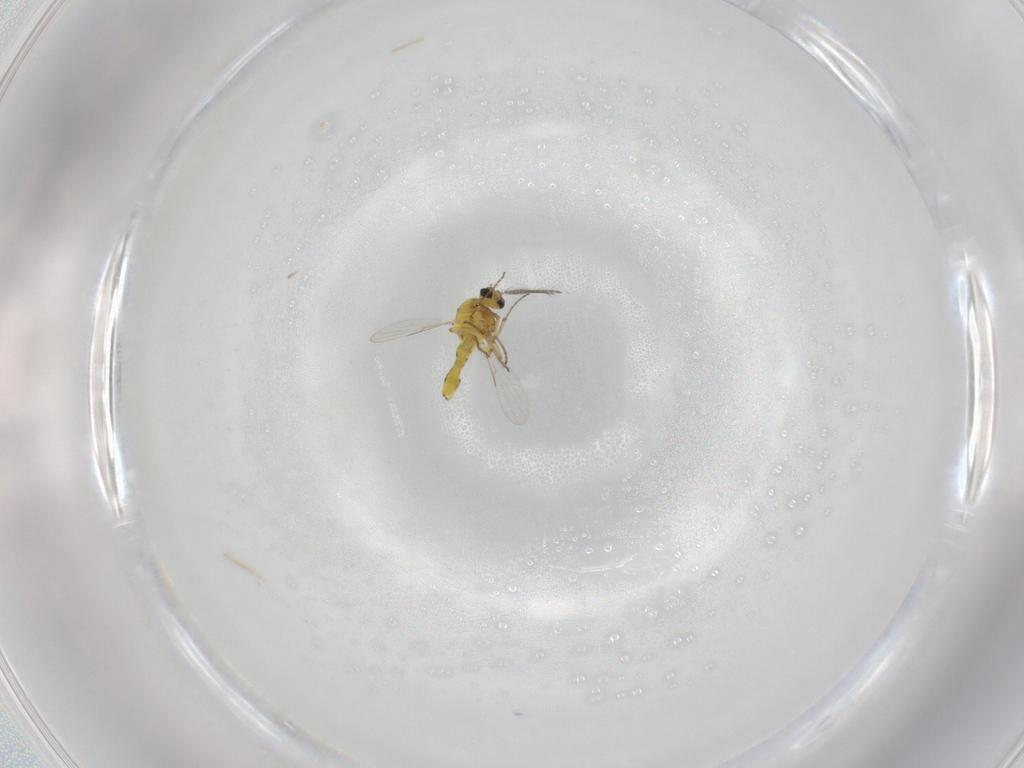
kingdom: Animalia
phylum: Arthropoda
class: Insecta
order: Diptera
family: Ceratopogonidae
